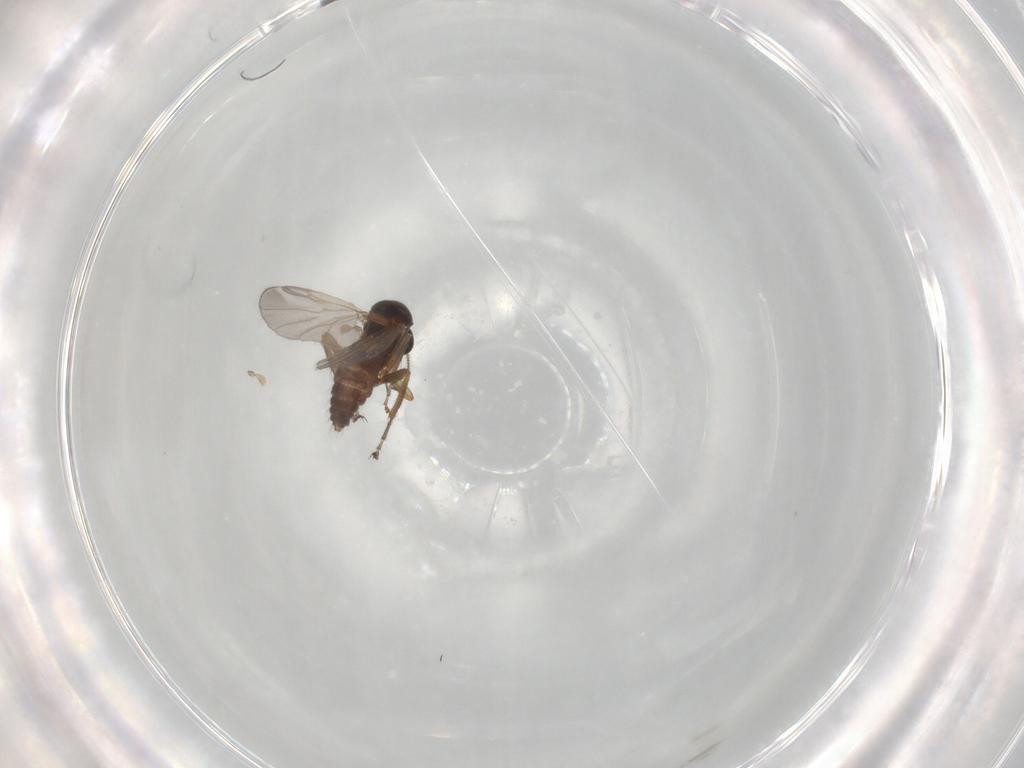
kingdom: Animalia
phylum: Arthropoda
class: Insecta
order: Diptera
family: Ceratopogonidae
